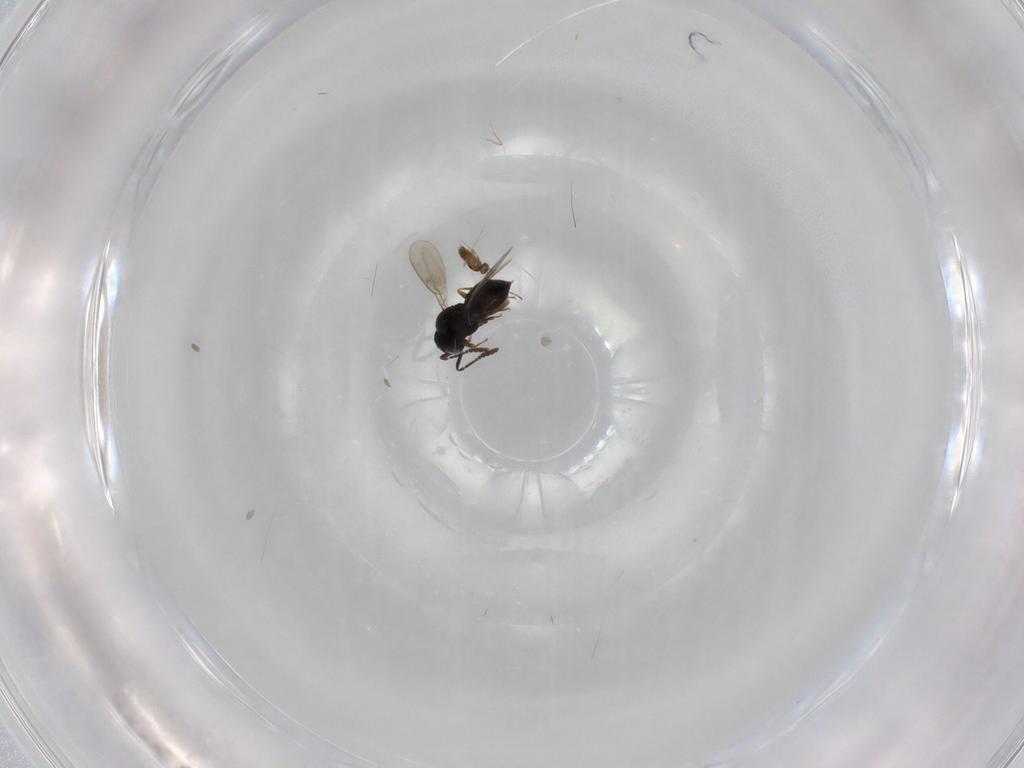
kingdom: Animalia
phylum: Arthropoda
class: Insecta
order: Hymenoptera
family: Scelionidae
